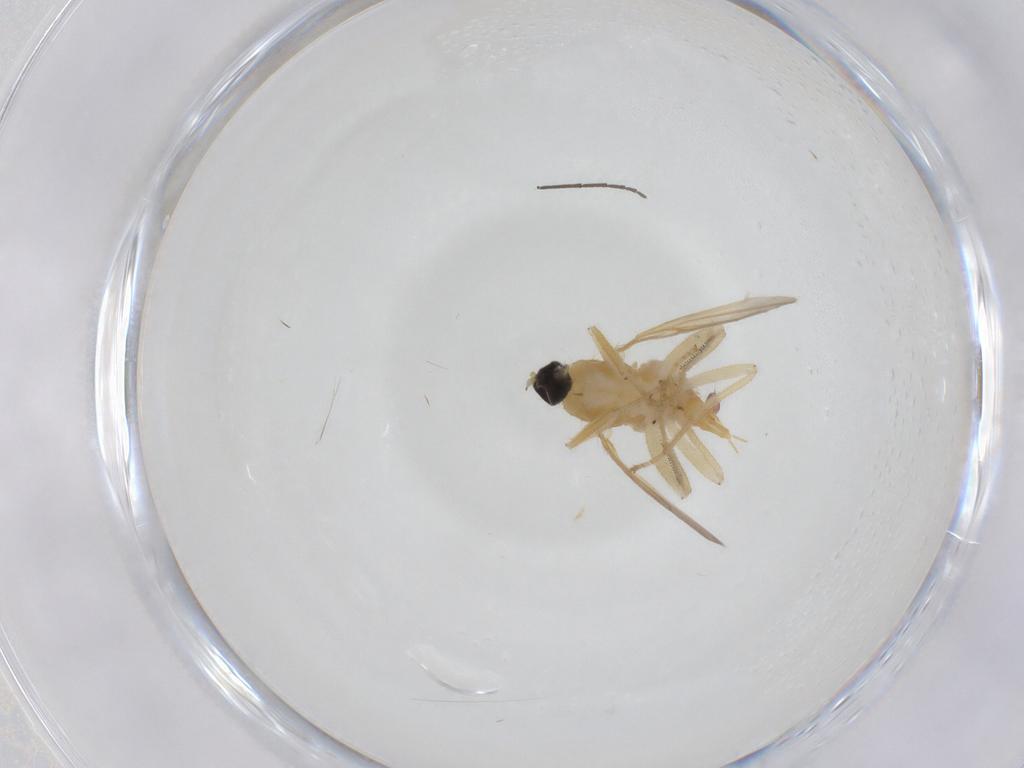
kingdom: Animalia
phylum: Arthropoda
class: Insecta
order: Diptera
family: Hybotidae
